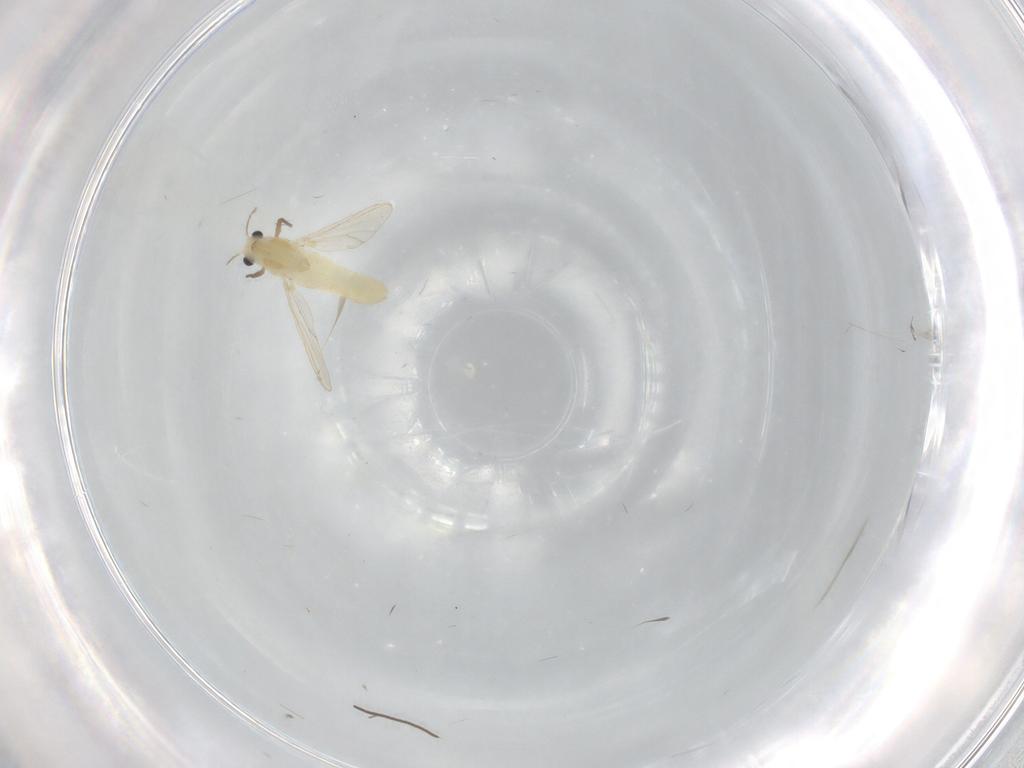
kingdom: Animalia
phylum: Arthropoda
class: Insecta
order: Diptera
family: Chironomidae
